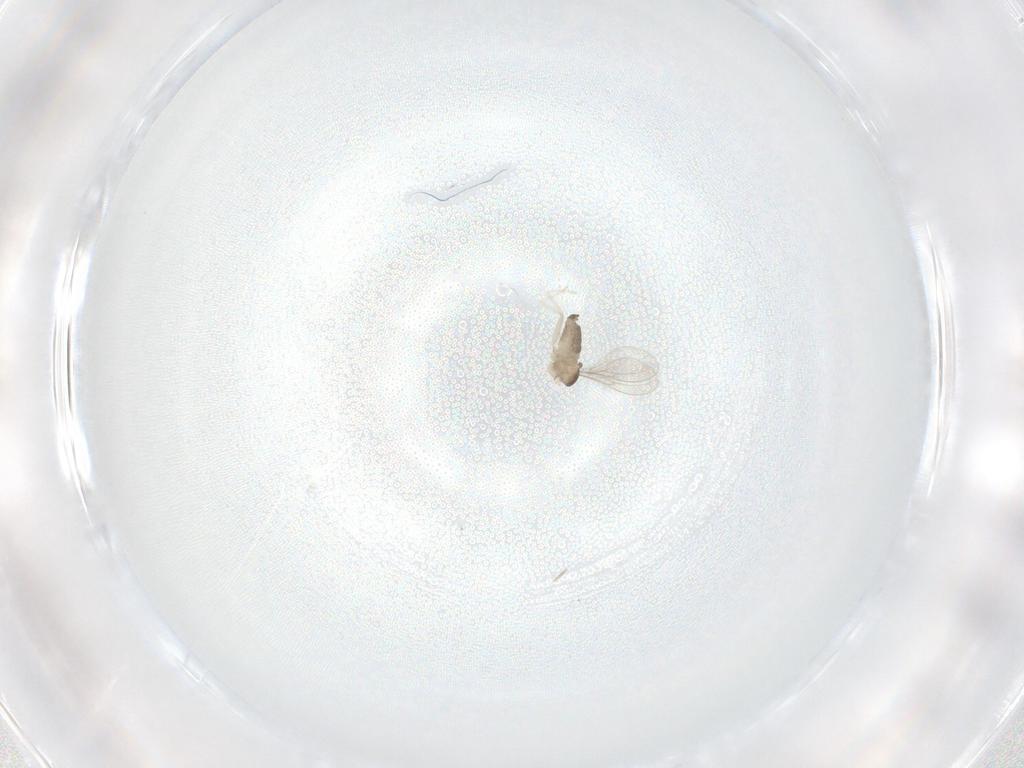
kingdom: Animalia
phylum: Arthropoda
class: Insecta
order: Diptera
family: Cecidomyiidae
